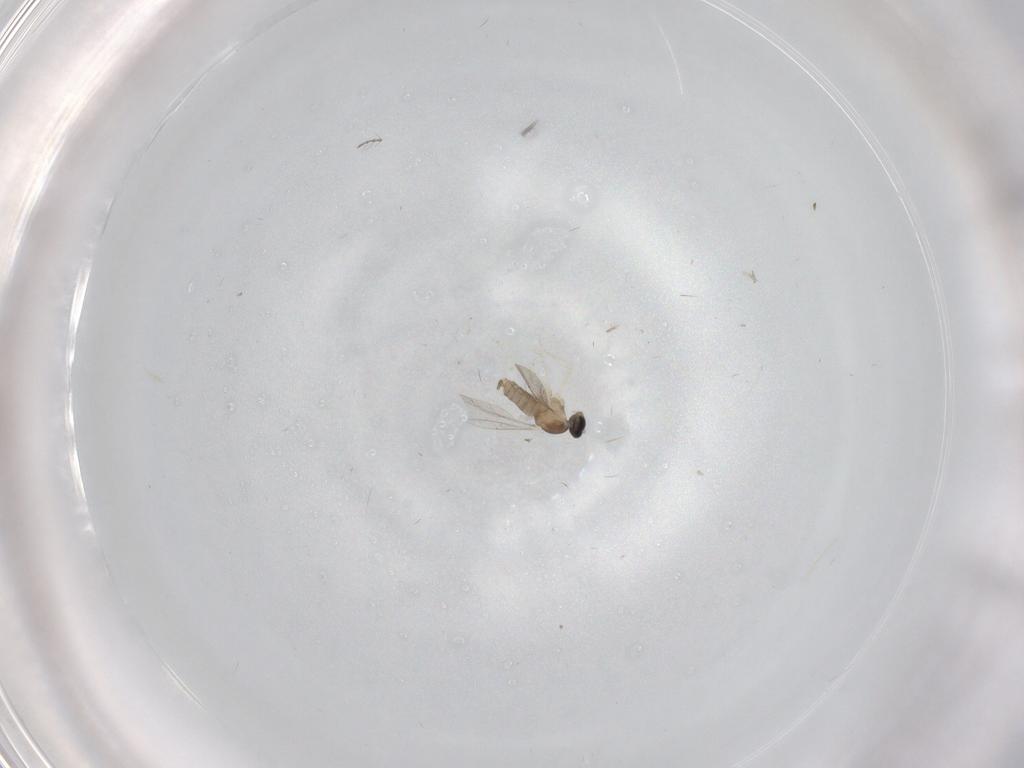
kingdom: Animalia
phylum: Arthropoda
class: Insecta
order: Diptera
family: Cecidomyiidae
